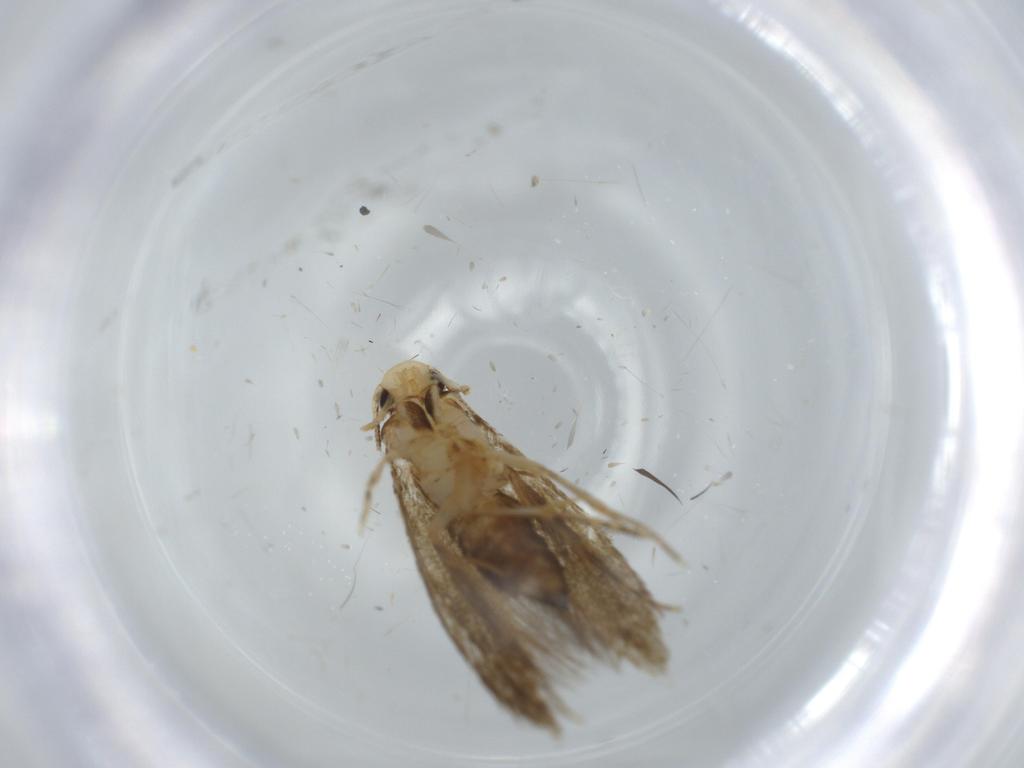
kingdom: Animalia
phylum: Arthropoda
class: Insecta
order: Lepidoptera
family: Tineidae
